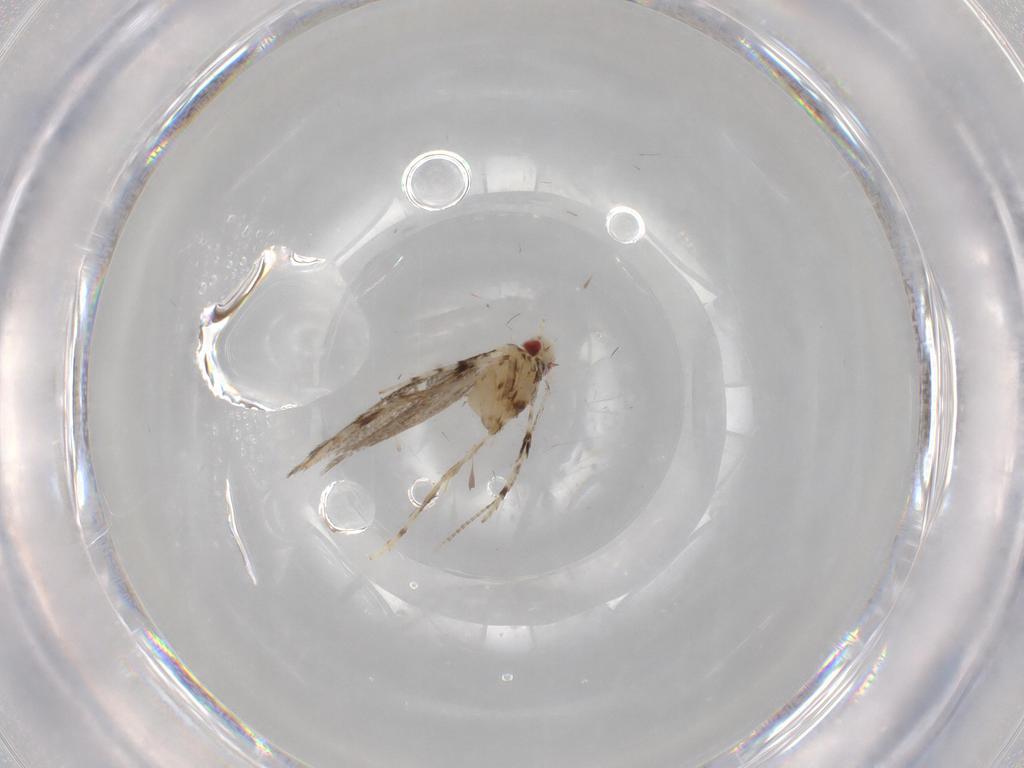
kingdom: Animalia
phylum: Arthropoda
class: Insecta
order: Lepidoptera
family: Gracillariidae
